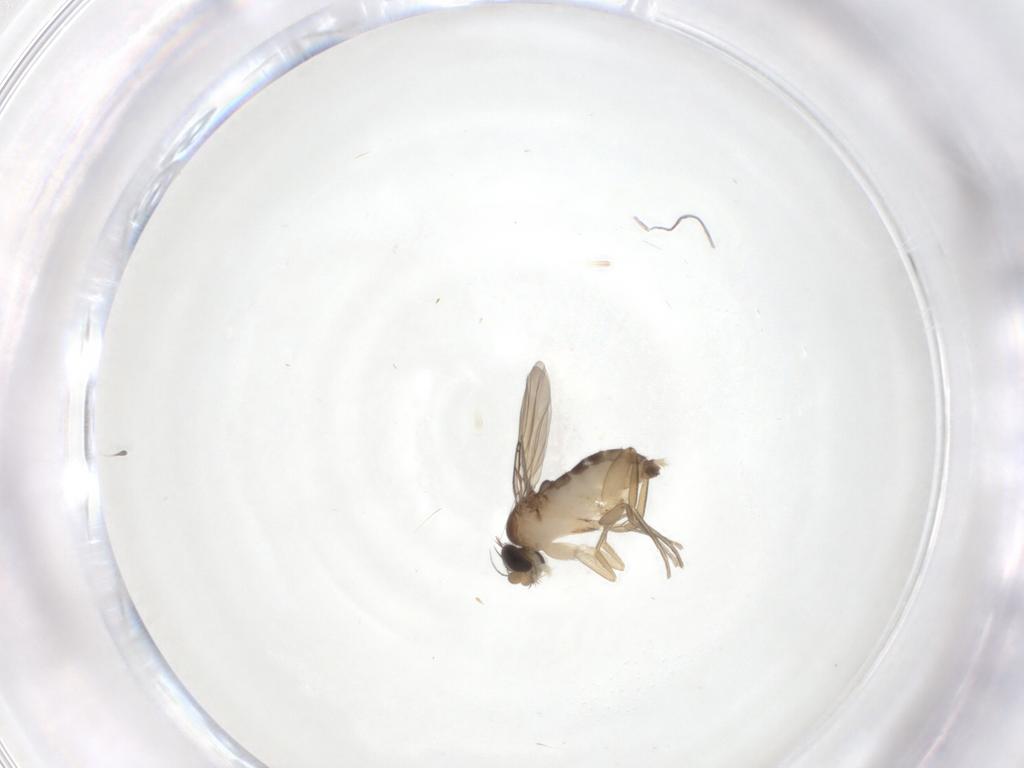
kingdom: Animalia
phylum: Arthropoda
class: Insecta
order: Diptera
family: Phoridae
